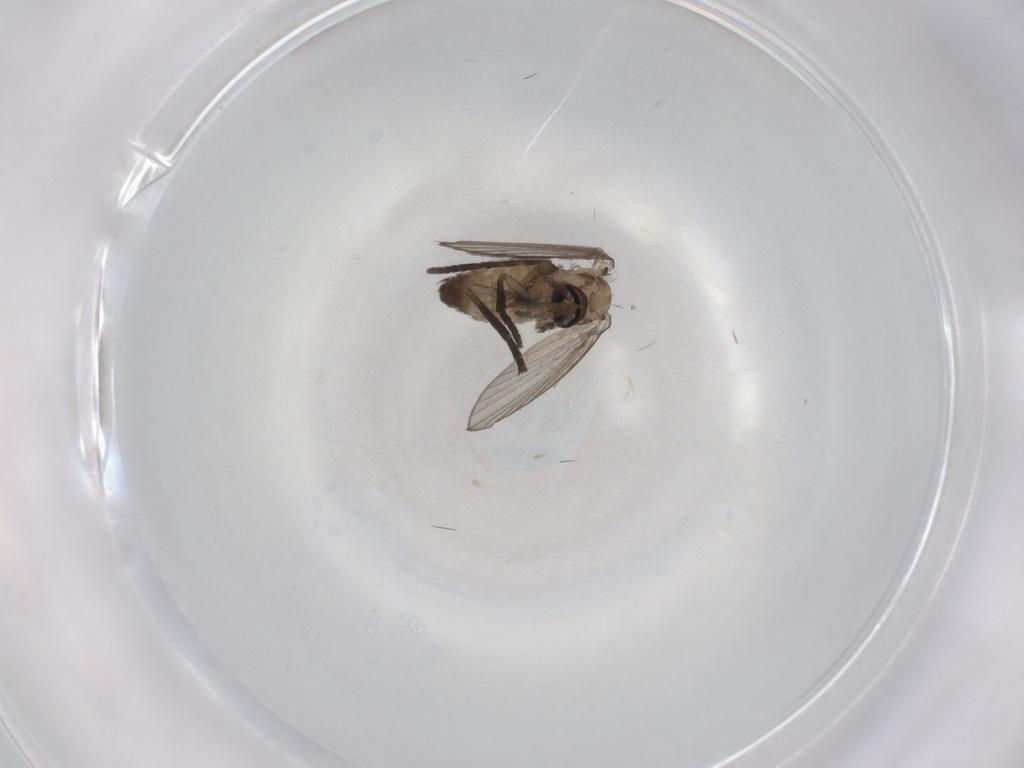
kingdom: Animalia
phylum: Arthropoda
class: Insecta
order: Diptera
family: Psychodidae
